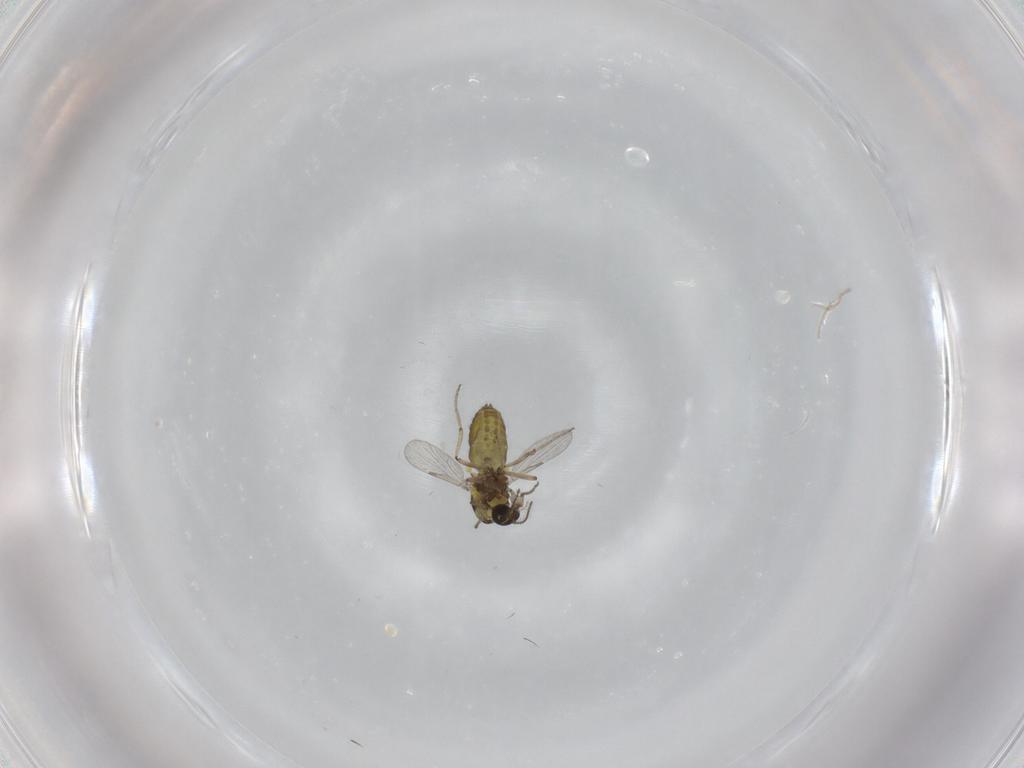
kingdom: Animalia
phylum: Arthropoda
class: Insecta
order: Diptera
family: Ceratopogonidae
